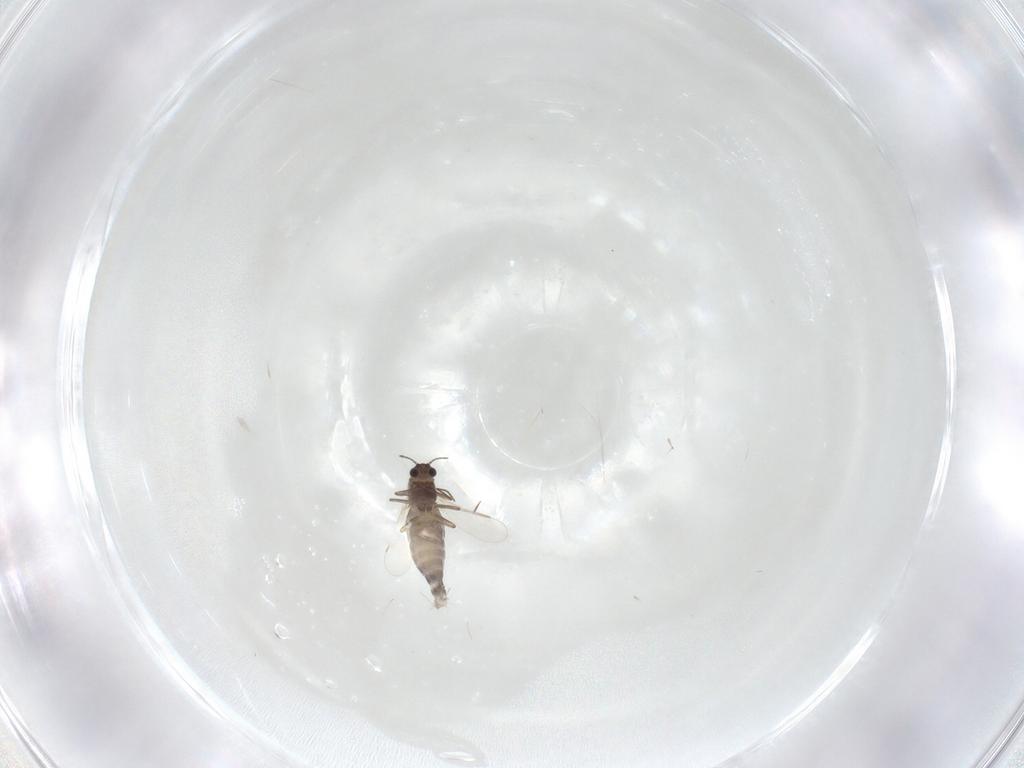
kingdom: Animalia
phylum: Arthropoda
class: Insecta
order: Diptera
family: Chironomidae
